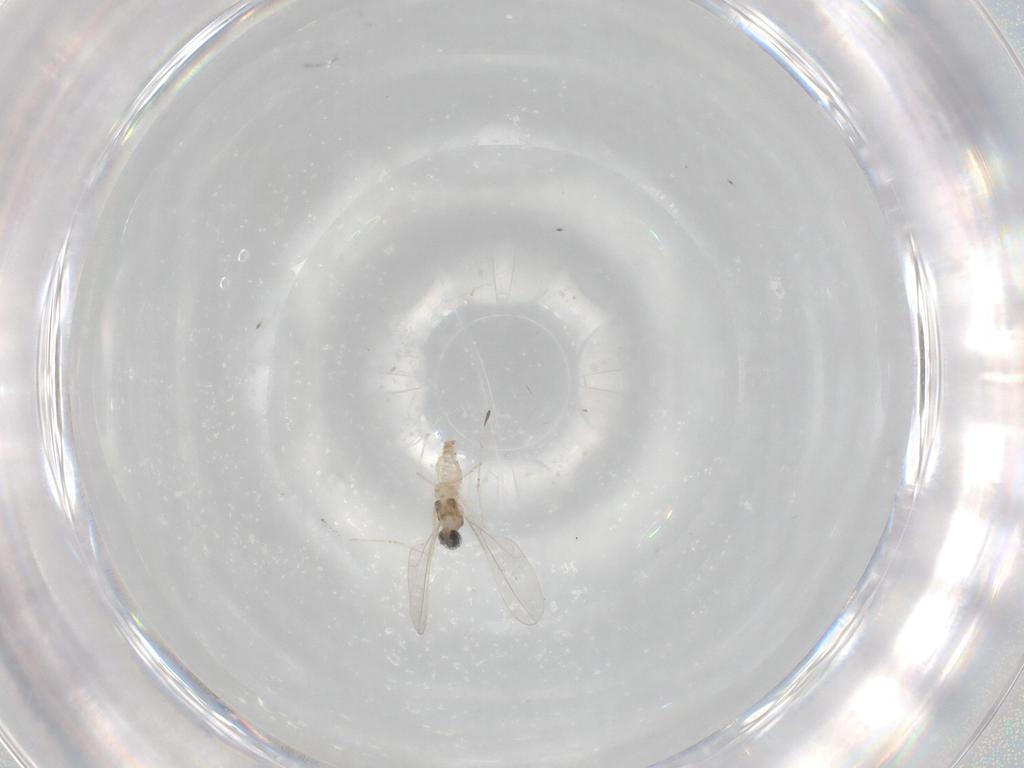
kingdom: Animalia
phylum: Arthropoda
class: Insecta
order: Diptera
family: Cecidomyiidae
